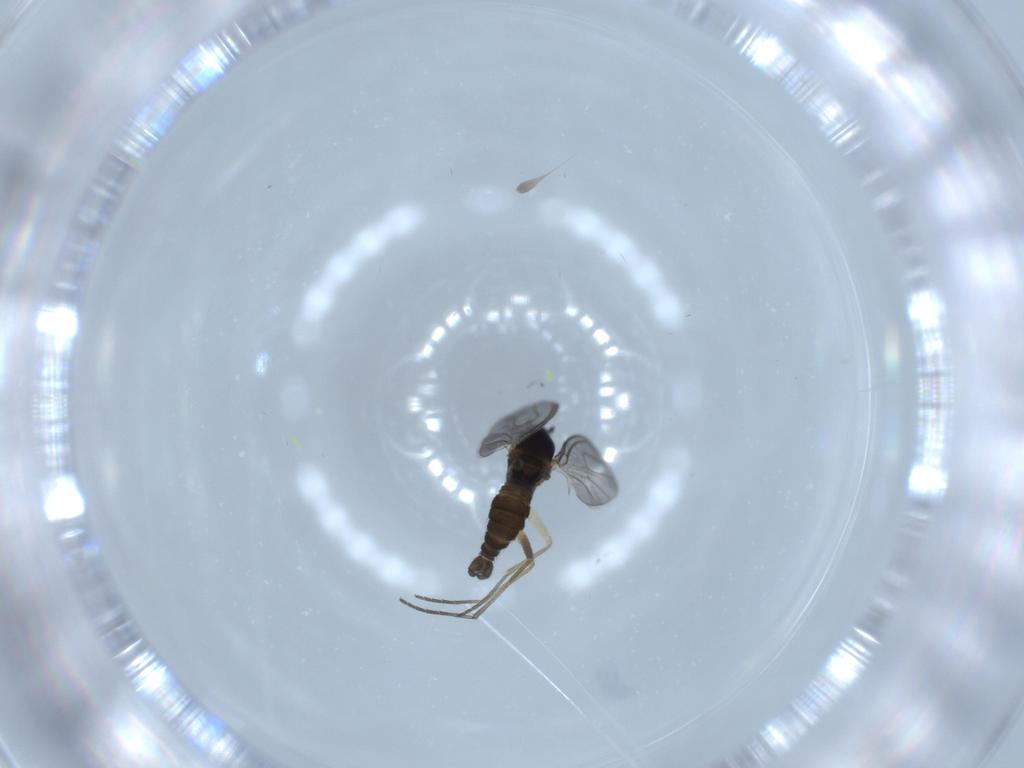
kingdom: Animalia
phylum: Arthropoda
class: Insecta
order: Diptera
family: Sciaridae
